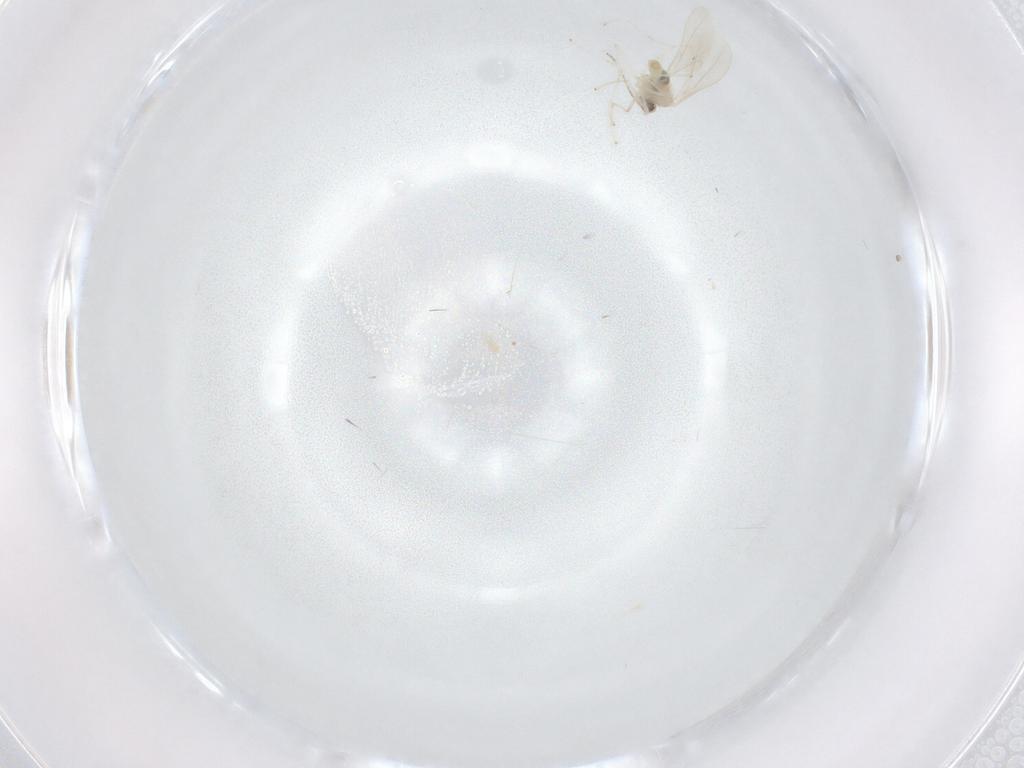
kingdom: Animalia
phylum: Arthropoda
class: Insecta
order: Diptera
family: Cecidomyiidae
